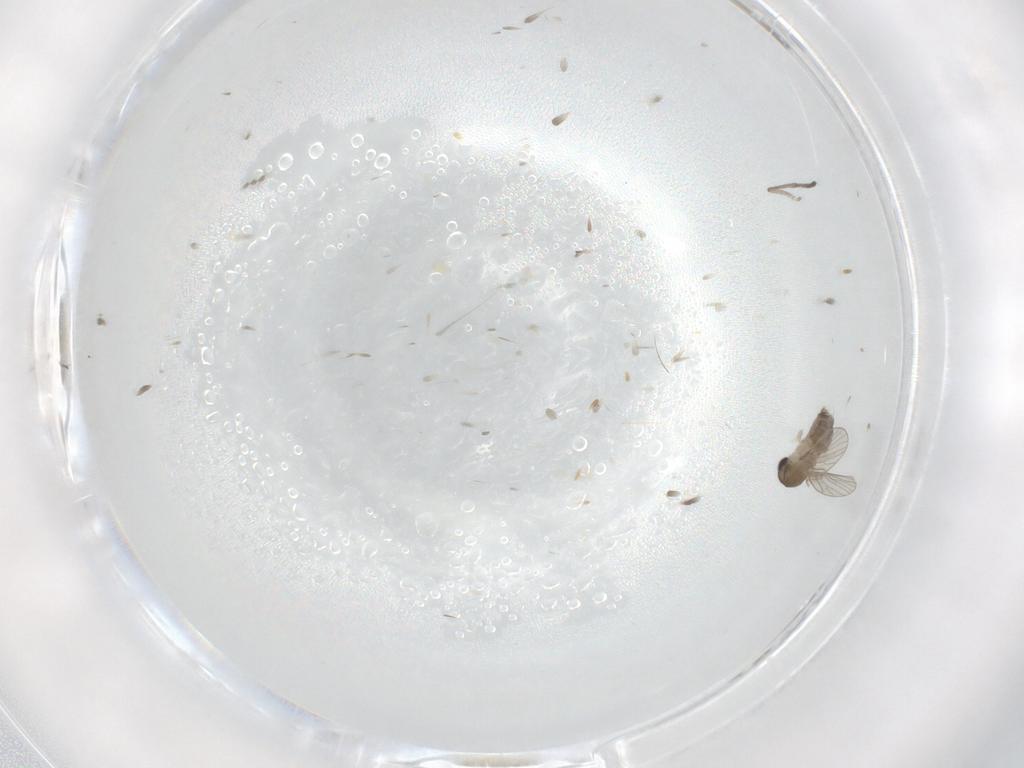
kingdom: Animalia
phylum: Arthropoda
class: Insecta
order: Diptera
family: Psychodidae
